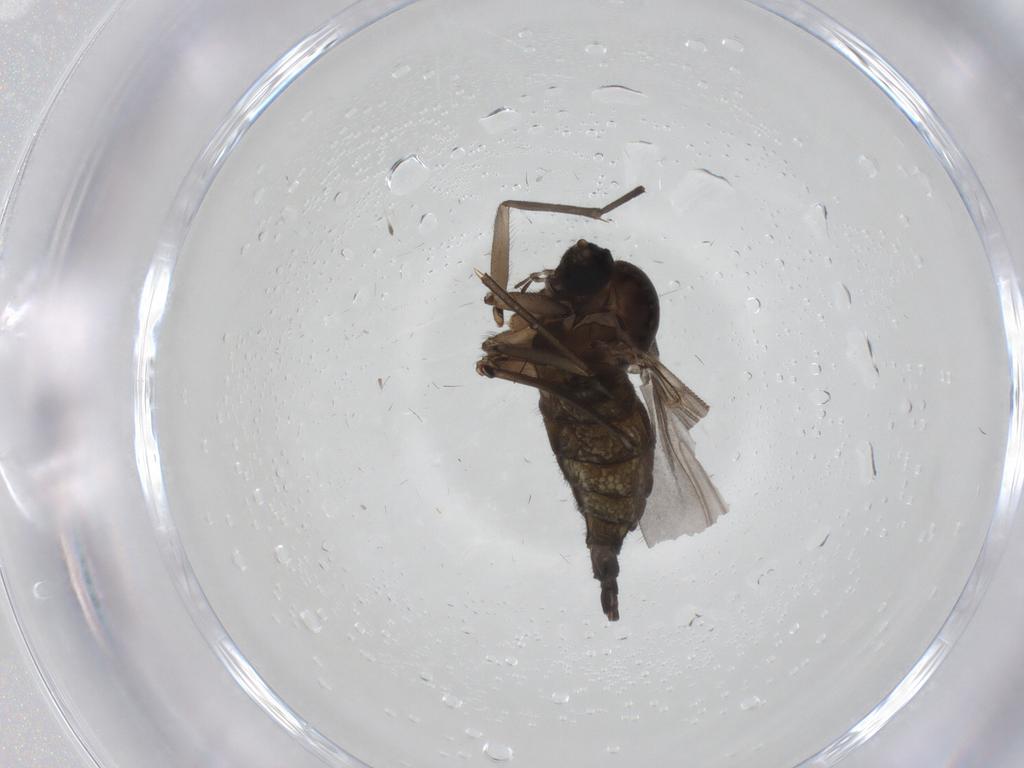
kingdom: Animalia
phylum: Arthropoda
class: Insecta
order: Diptera
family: Sciaridae
